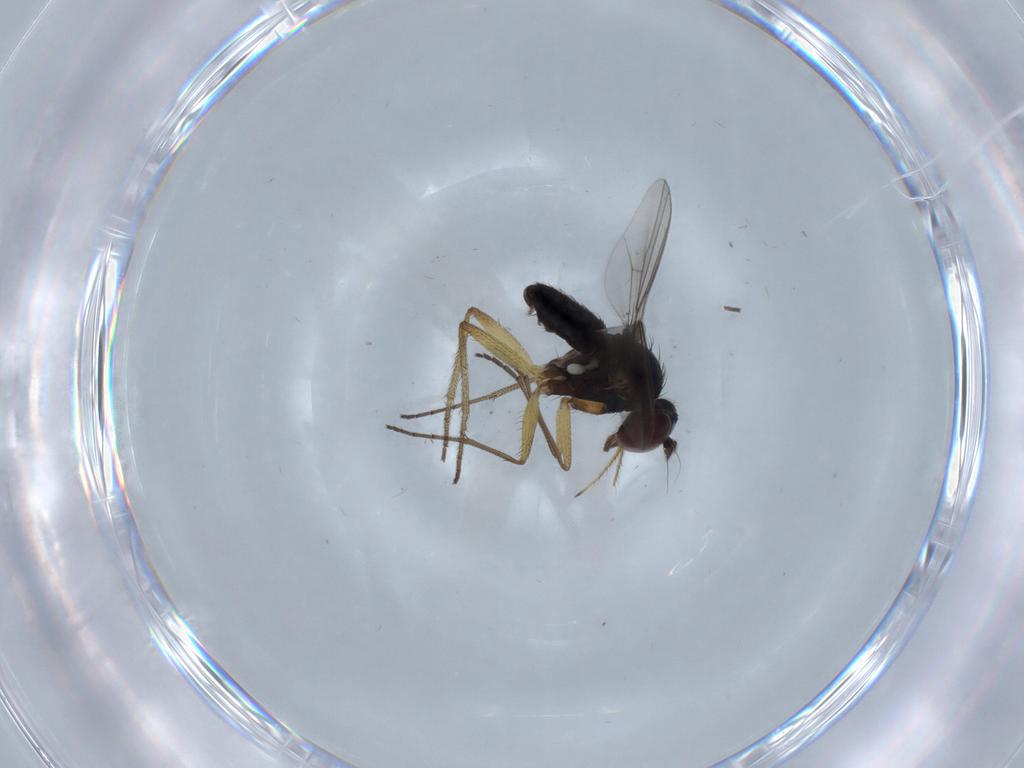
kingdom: Animalia
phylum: Arthropoda
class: Insecta
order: Diptera
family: Dolichopodidae
